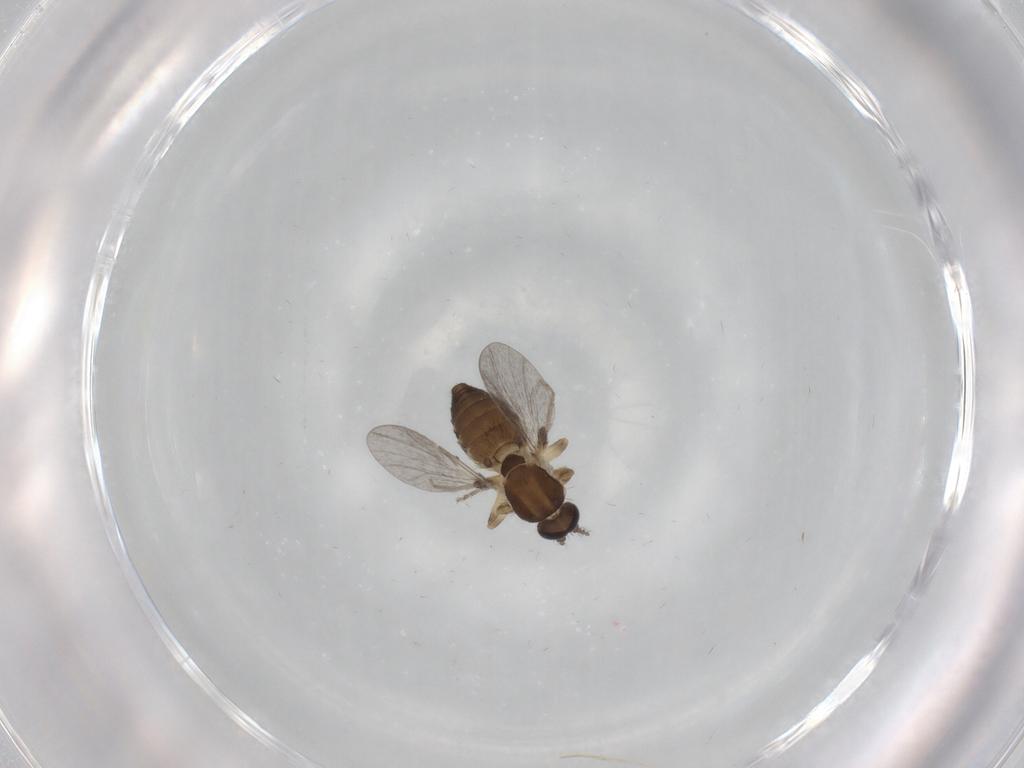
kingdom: Animalia
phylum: Arthropoda
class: Insecta
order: Diptera
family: Ceratopogonidae
